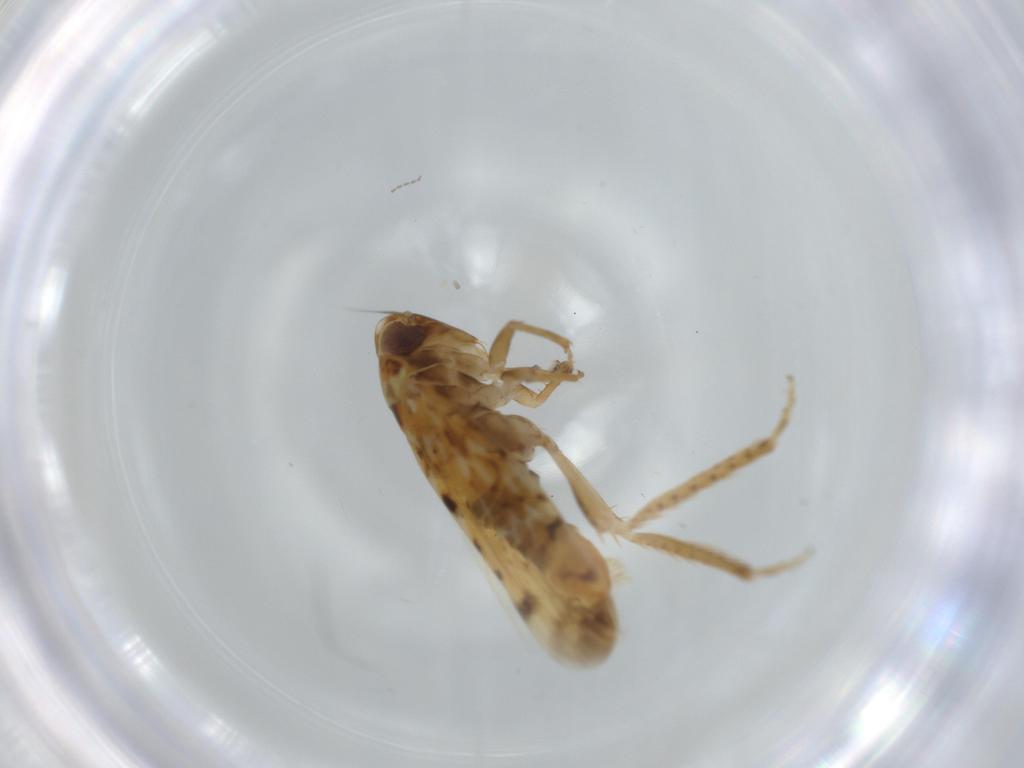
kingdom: Animalia
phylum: Arthropoda
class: Insecta
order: Hemiptera
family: Cicadellidae
